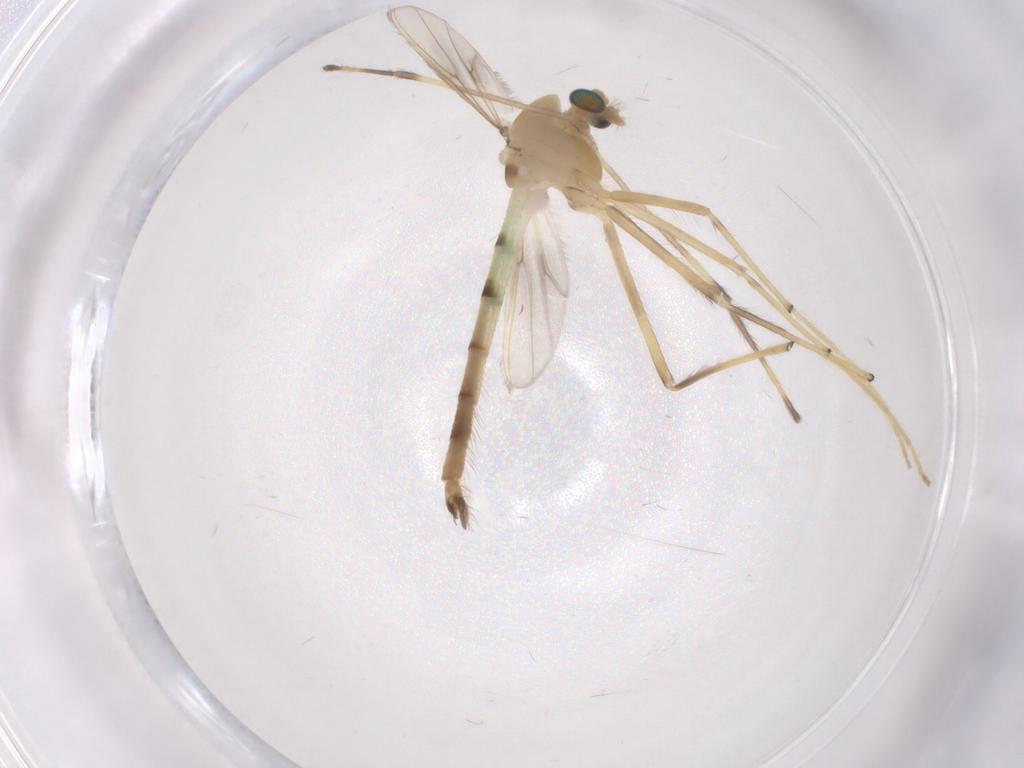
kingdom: Animalia
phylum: Arthropoda
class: Insecta
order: Diptera
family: Chironomidae
